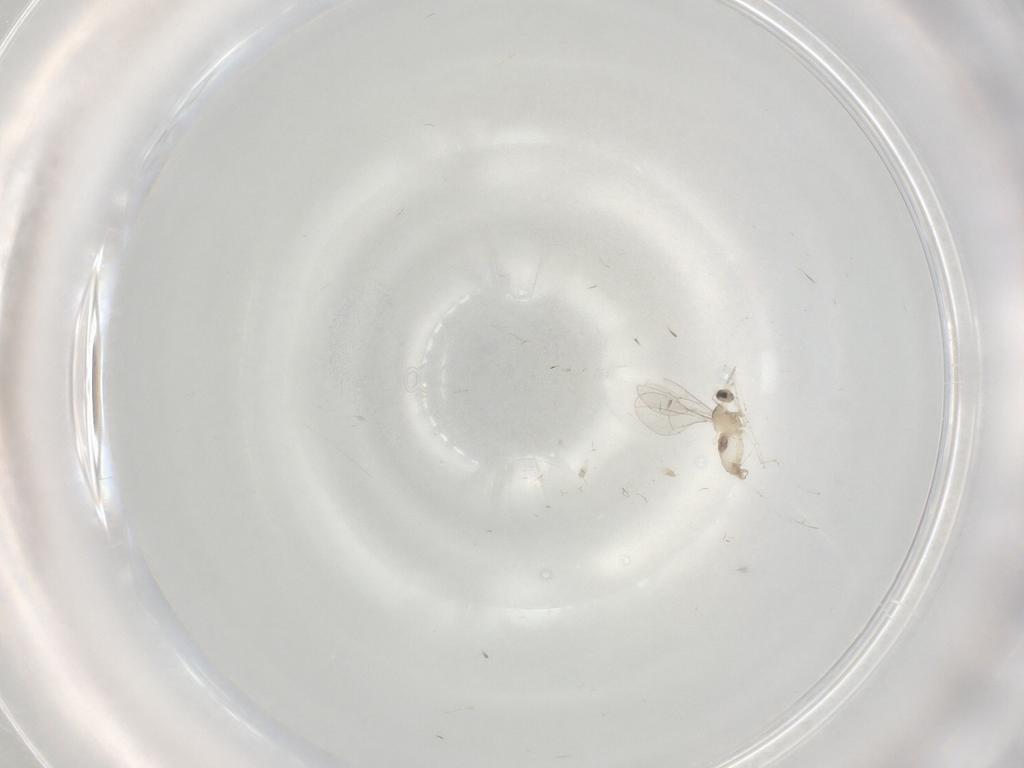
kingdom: Animalia
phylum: Arthropoda
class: Insecta
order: Diptera
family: Cecidomyiidae
